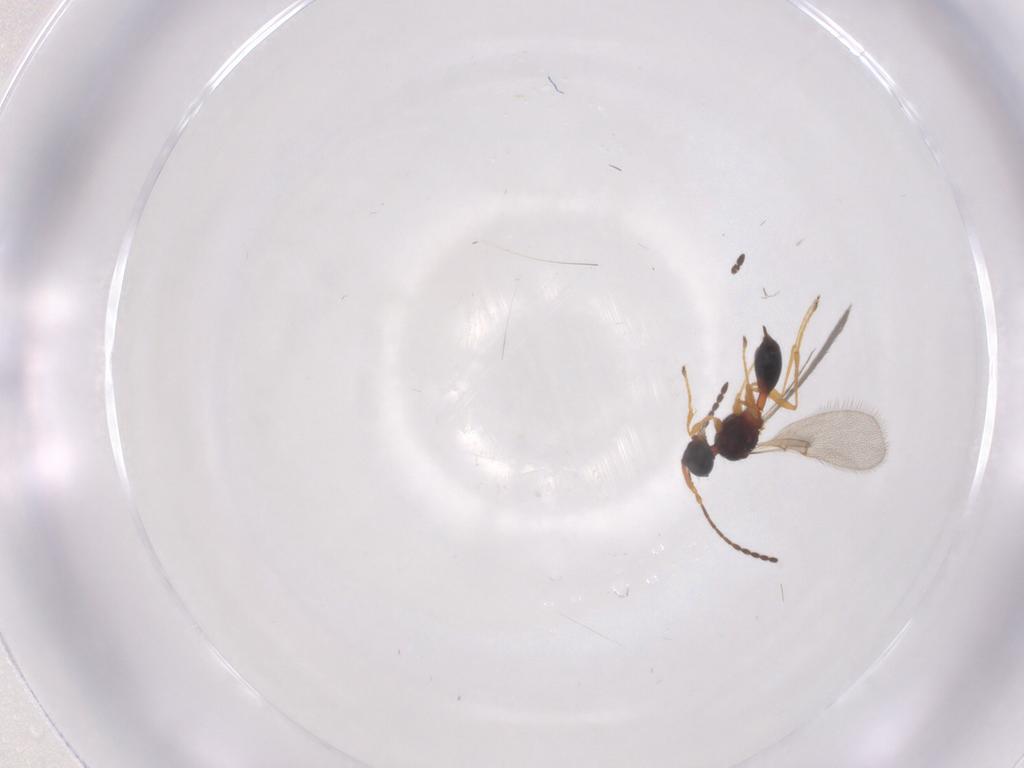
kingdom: Animalia
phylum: Arthropoda
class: Insecta
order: Hymenoptera
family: Diapriidae
